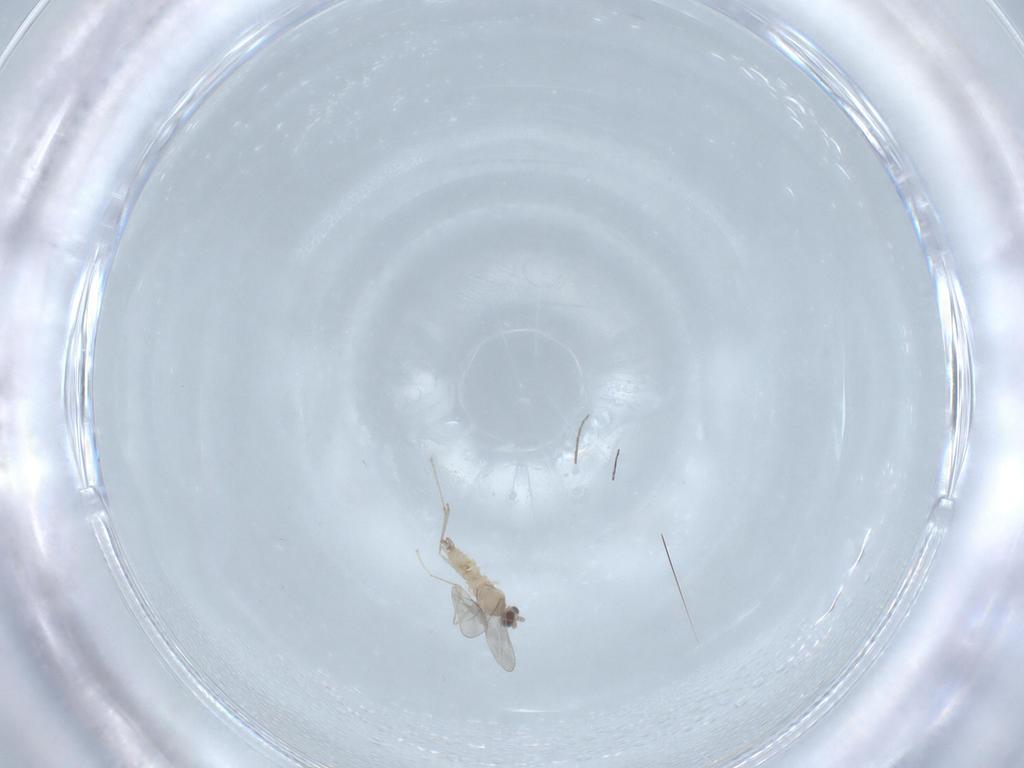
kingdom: Animalia
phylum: Arthropoda
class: Insecta
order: Diptera
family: Chironomidae
